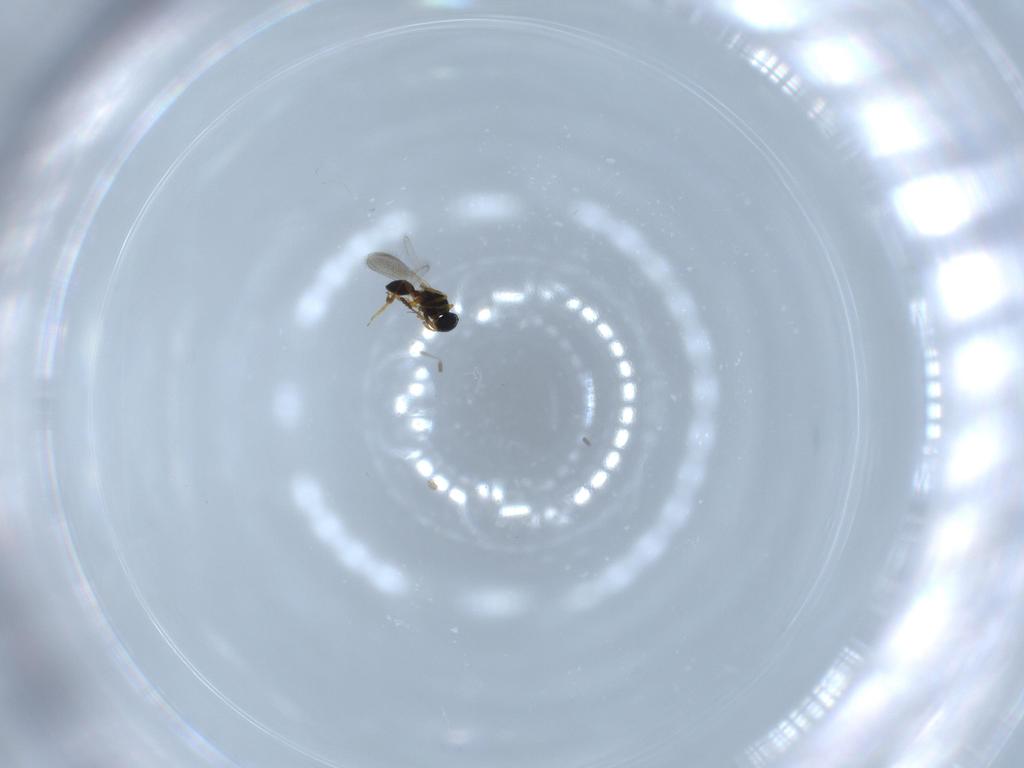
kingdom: Animalia
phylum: Arthropoda
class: Insecta
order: Hymenoptera
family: Platygastridae
